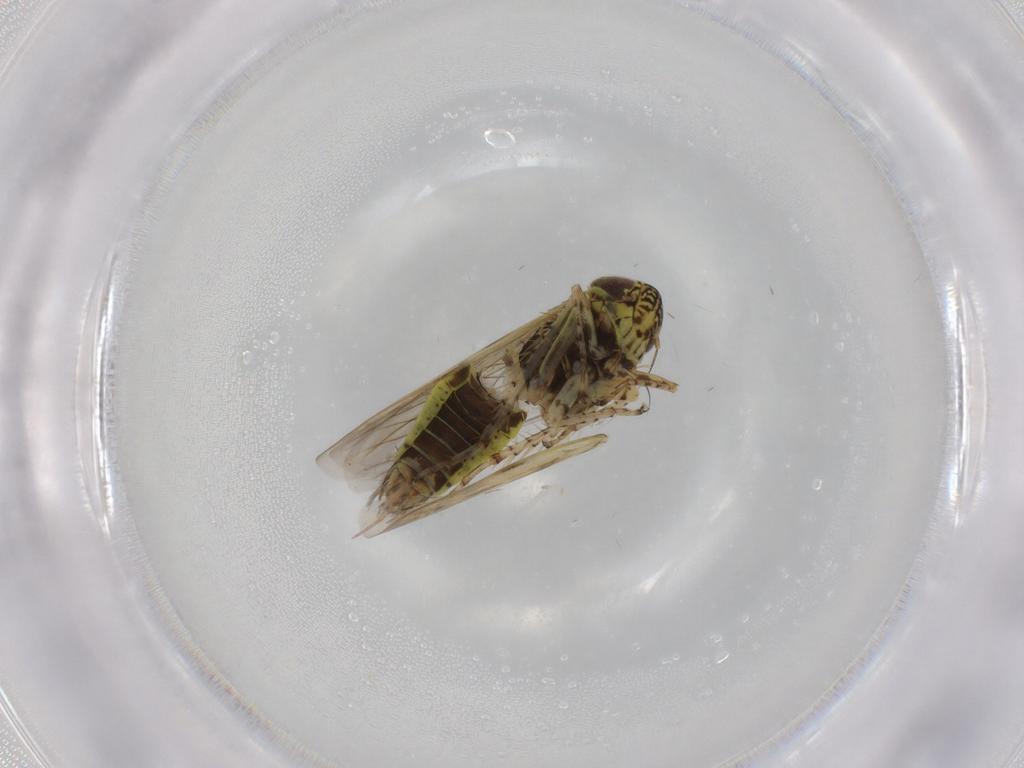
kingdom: Animalia
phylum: Arthropoda
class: Insecta
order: Hemiptera
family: Cicadellidae
